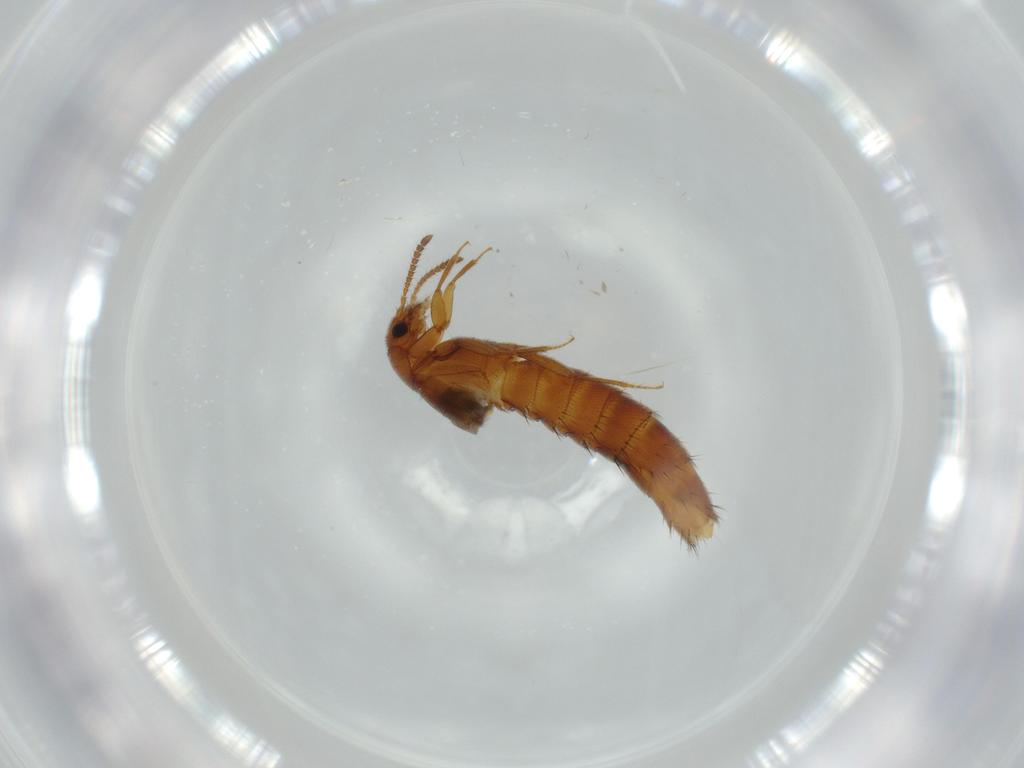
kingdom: Animalia
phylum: Arthropoda
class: Insecta
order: Coleoptera
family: Staphylinidae
